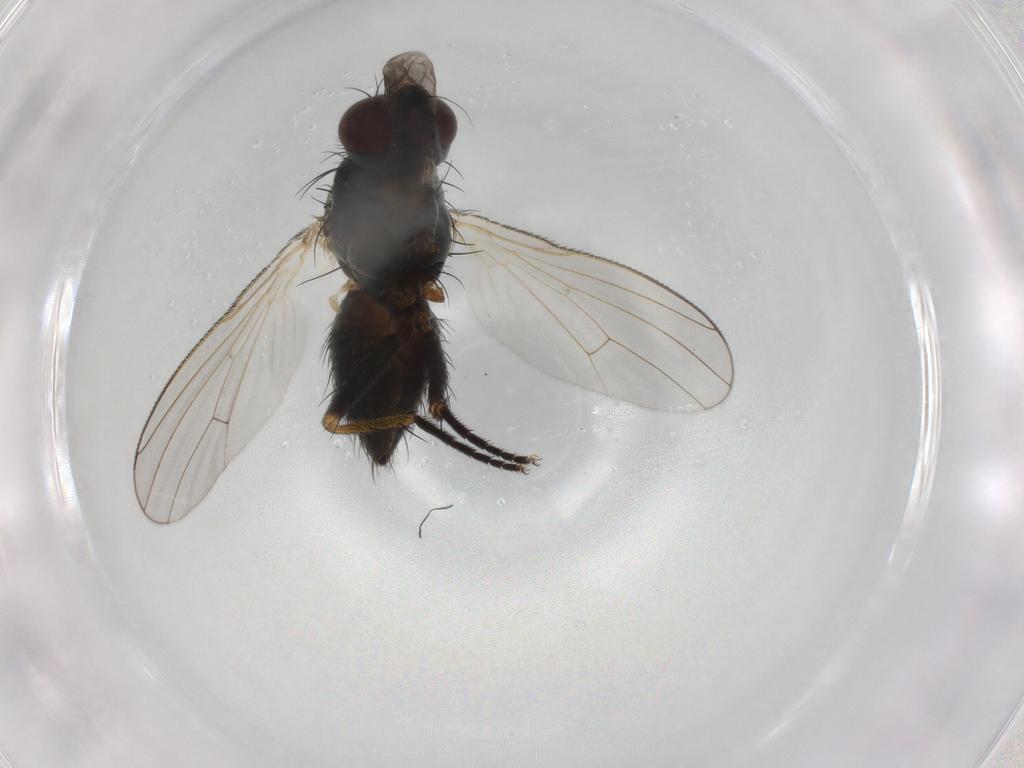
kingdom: Animalia
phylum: Arthropoda
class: Insecta
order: Diptera
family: Muscidae
